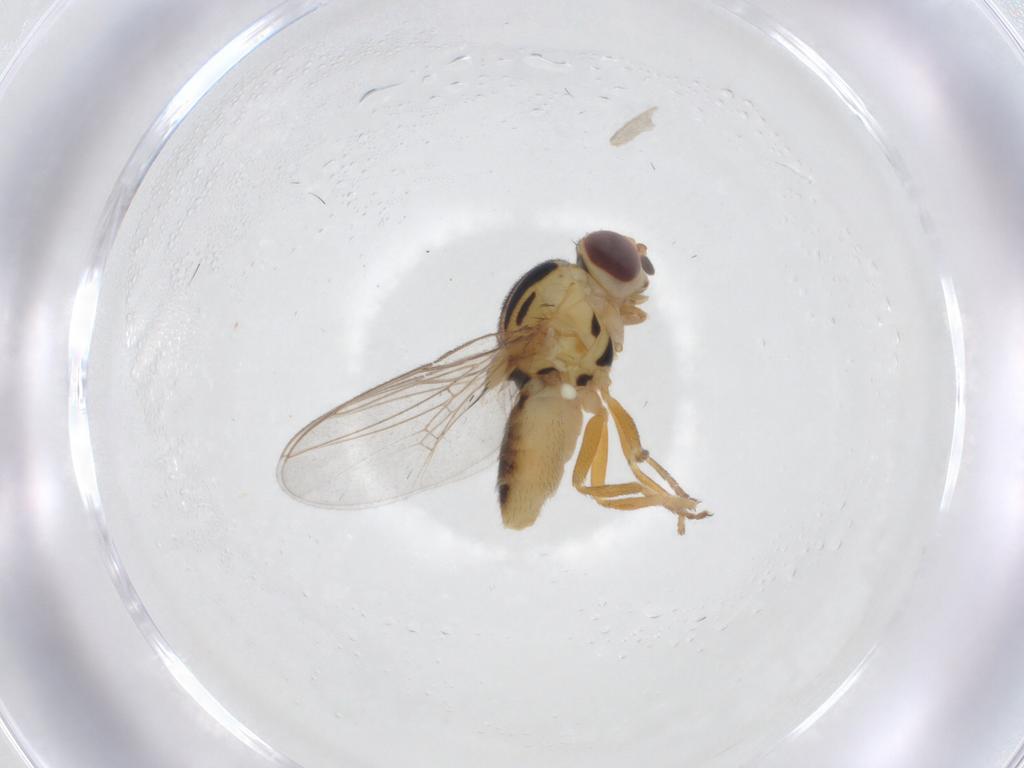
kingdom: Animalia
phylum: Arthropoda
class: Insecta
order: Diptera
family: Chloropidae
